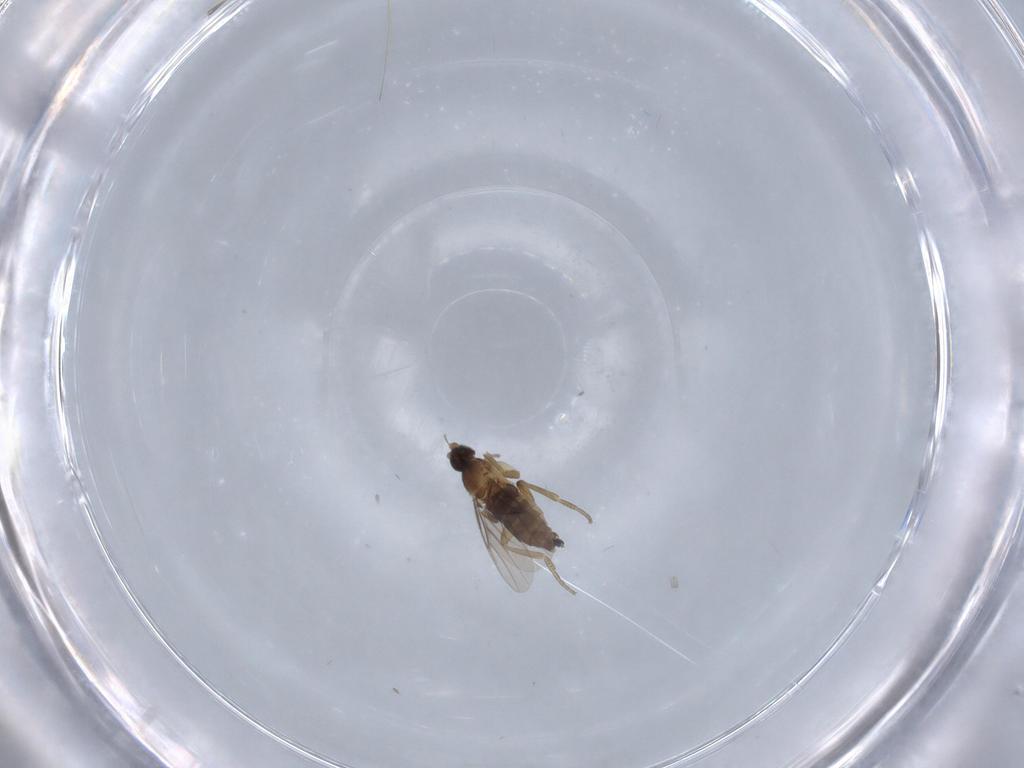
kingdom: Animalia
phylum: Arthropoda
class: Insecta
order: Diptera
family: Phoridae
